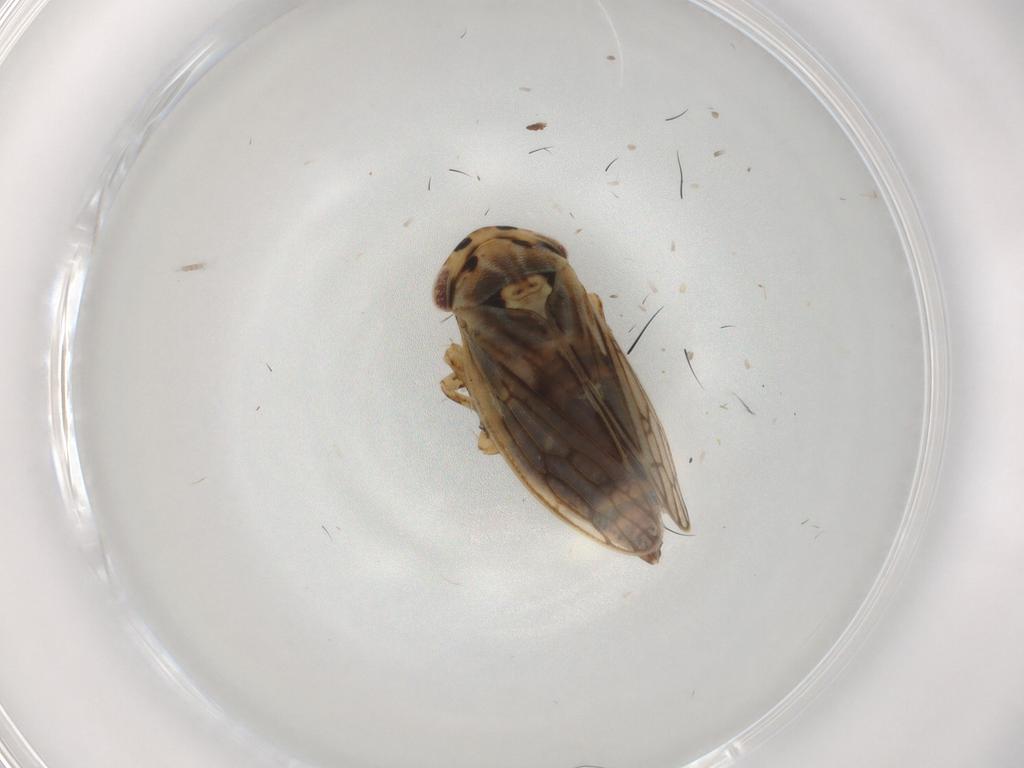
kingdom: Animalia
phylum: Arthropoda
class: Insecta
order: Hemiptera
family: Cicadellidae
